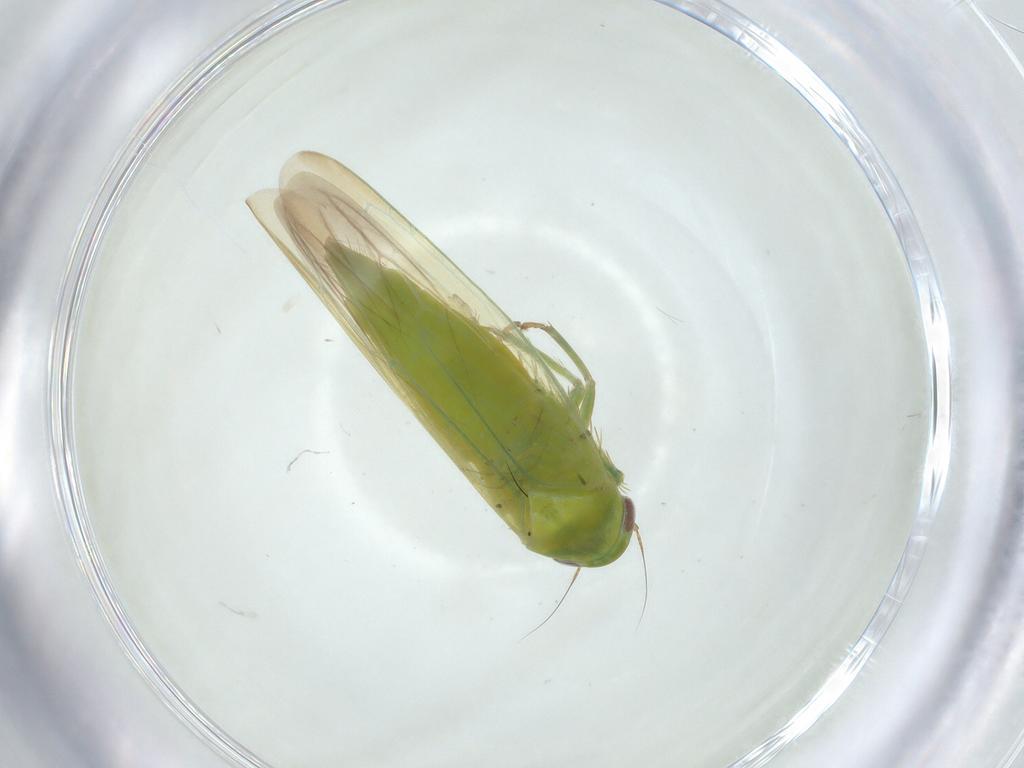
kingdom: Animalia
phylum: Arthropoda
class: Insecta
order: Hemiptera
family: Cicadellidae
